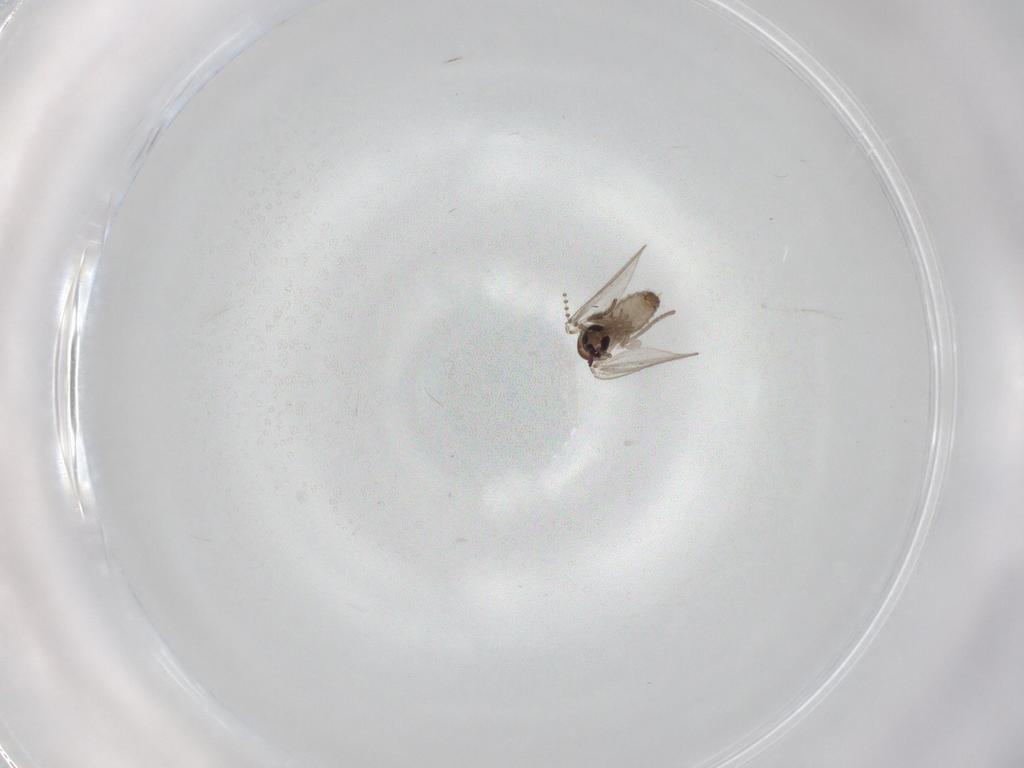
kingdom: Animalia
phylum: Arthropoda
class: Insecta
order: Diptera
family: Psychodidae
